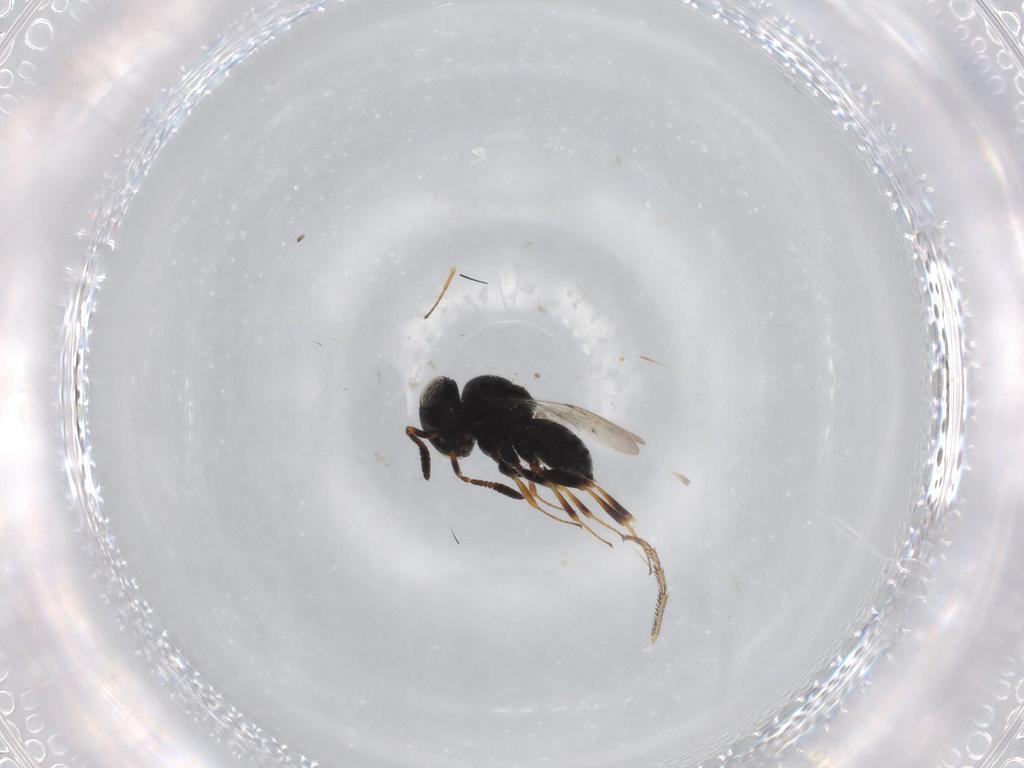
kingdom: Animalia
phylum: Arthropoda
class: Insecta
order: Hymenoptera
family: Scelionidae
